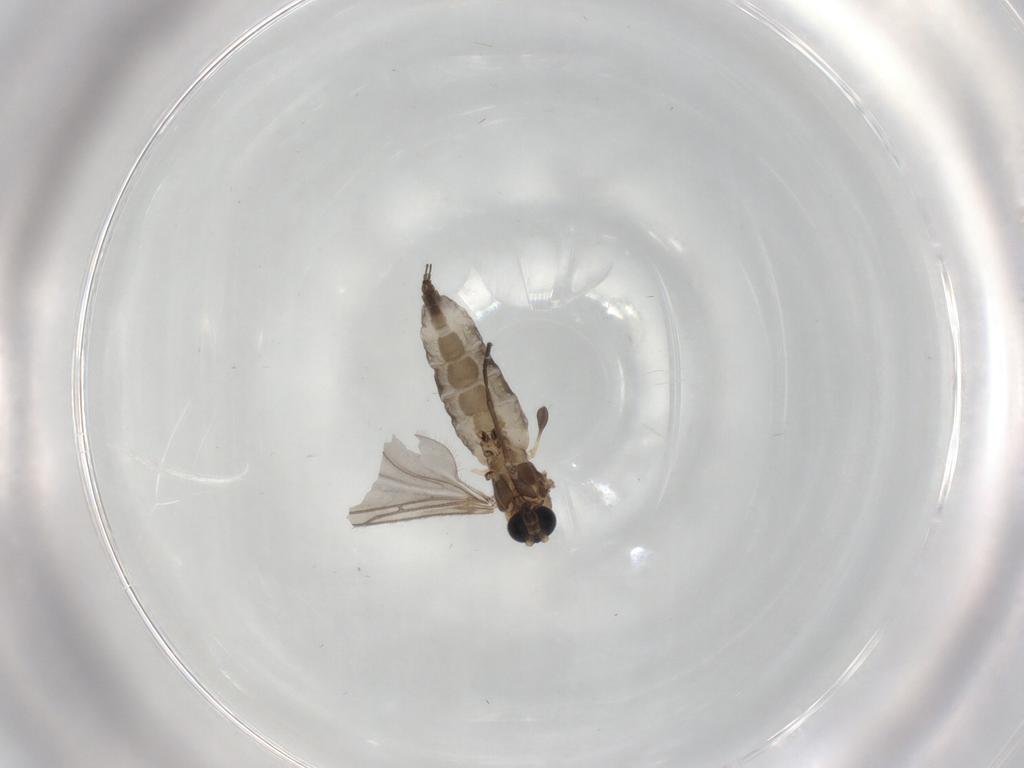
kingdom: Animalia
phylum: Arthropoda
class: Insecta
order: Diptera
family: Sciaridae
